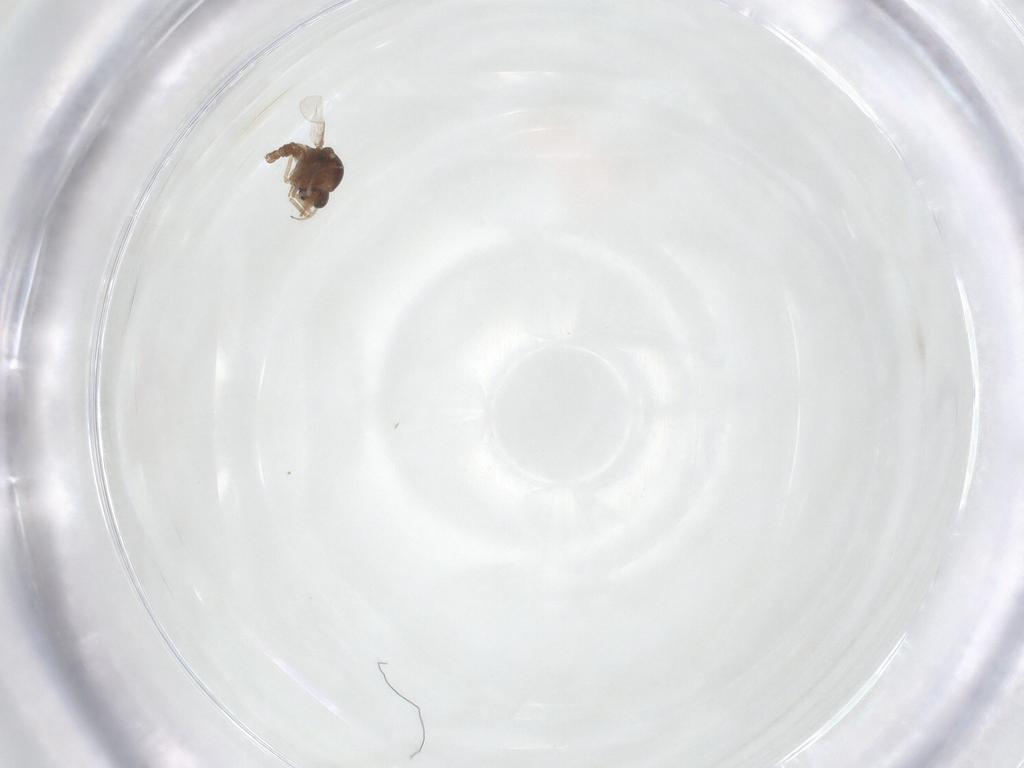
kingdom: Animalia
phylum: Arthropoda
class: Insecta
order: Diptera
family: Ceratopogonidae
